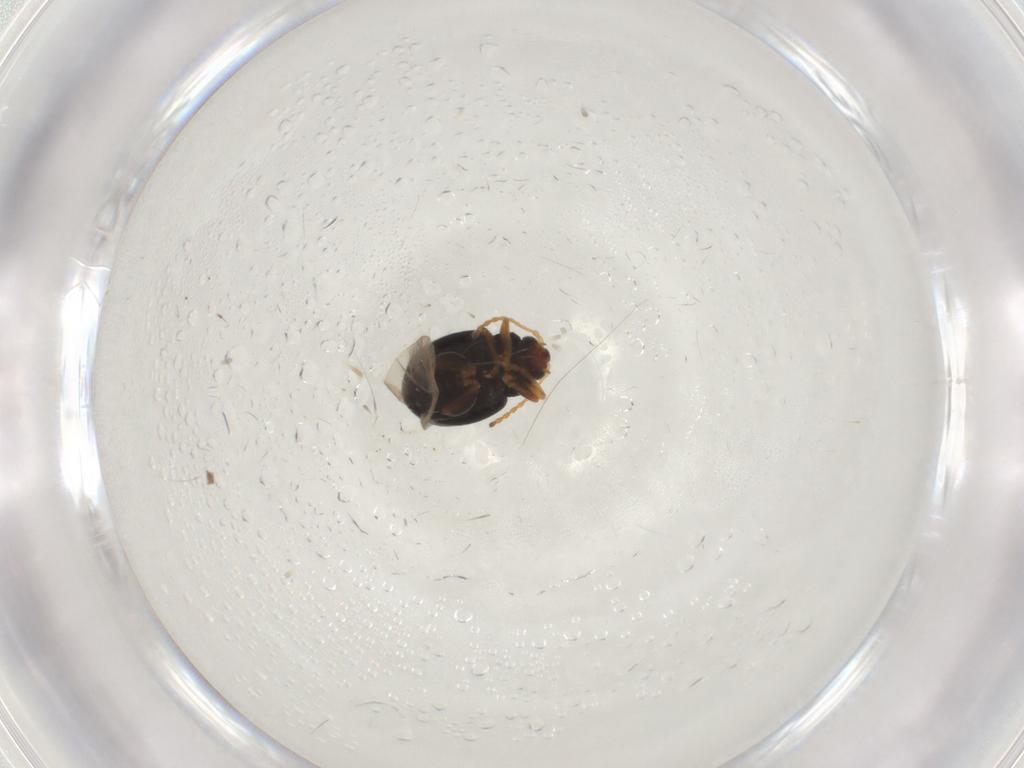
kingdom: Animalia
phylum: Arthropoda
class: Insecta
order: Coleoptera
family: Chrysomelidae
